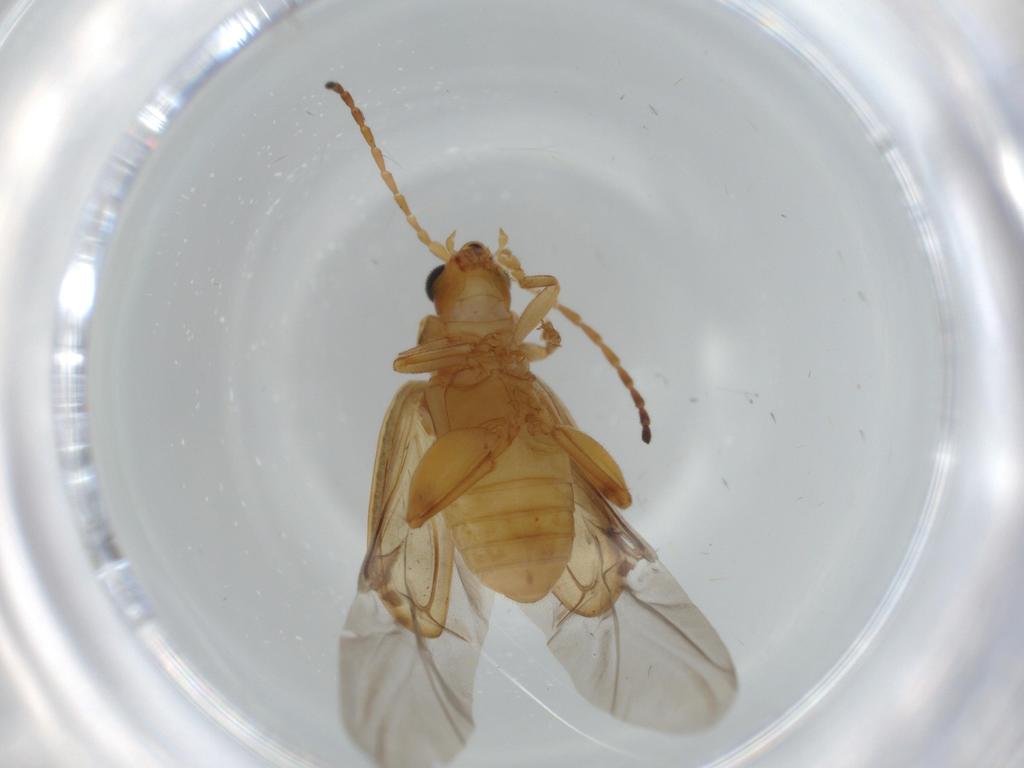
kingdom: Animalia
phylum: Arthropoda
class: Insecta
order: Coleoptera
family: Chrysomelidae
